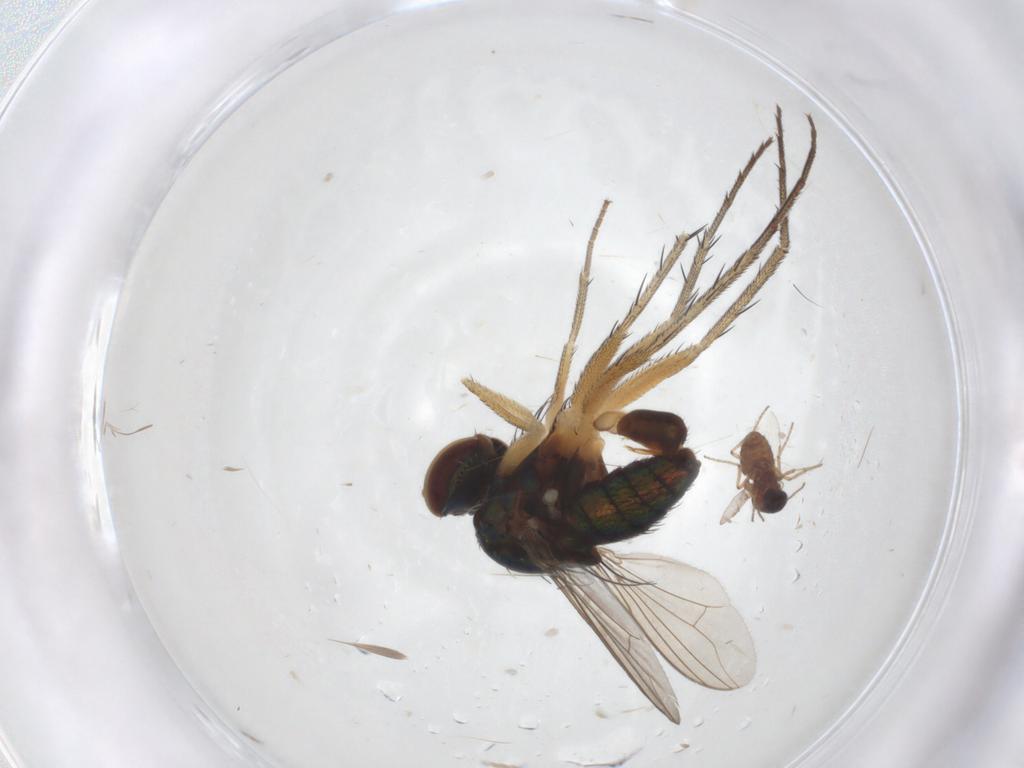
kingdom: Animalia
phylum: Arthropoda
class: Insecta
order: Diptera
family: Dolichopodidae
